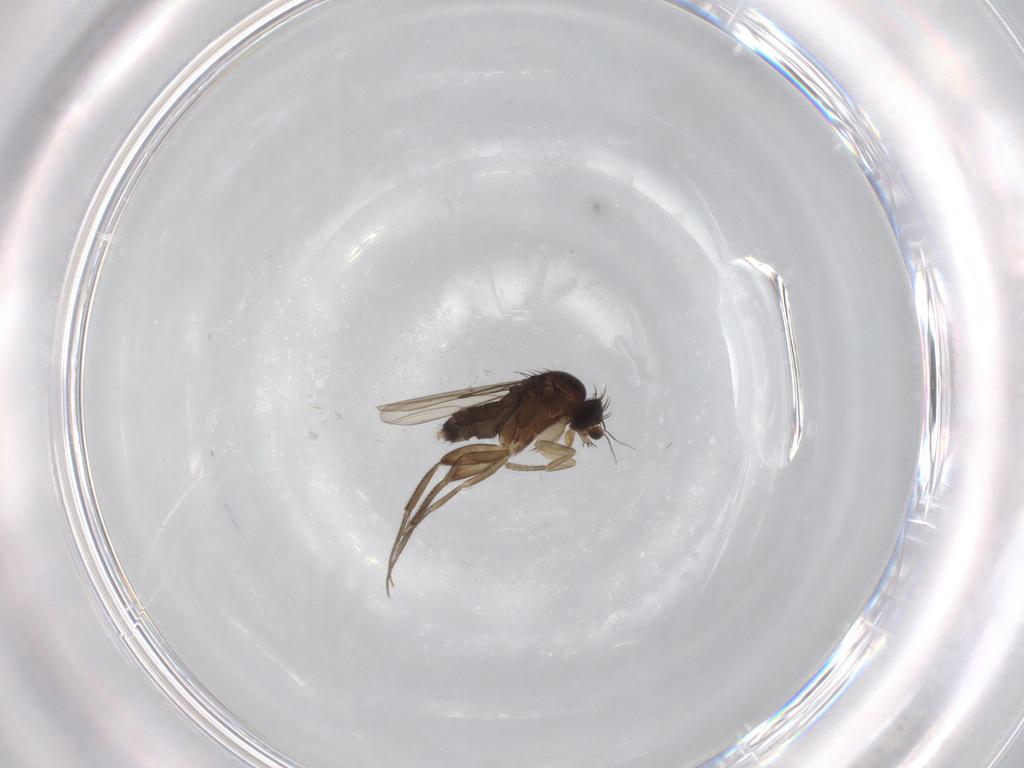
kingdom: Animalia
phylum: Arthropoda
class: Insecta
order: Diptera
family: Phoridae
